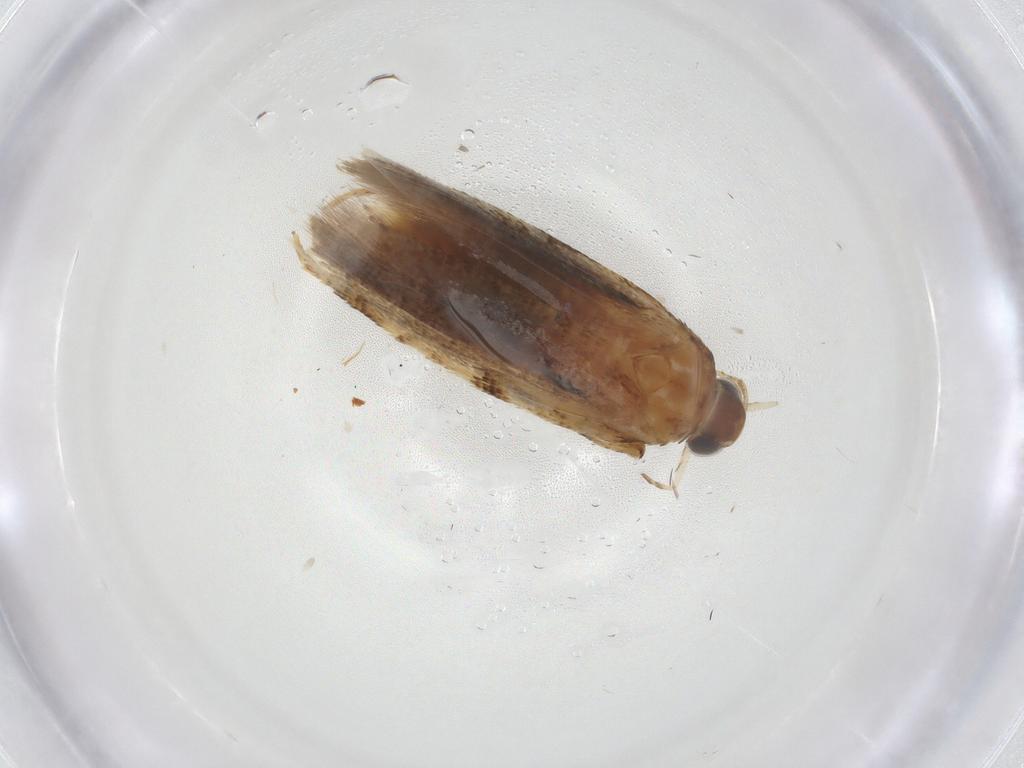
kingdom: Animalia
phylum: Arthropoda
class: Insecta
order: Lepidoptera
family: Gelechiidae
